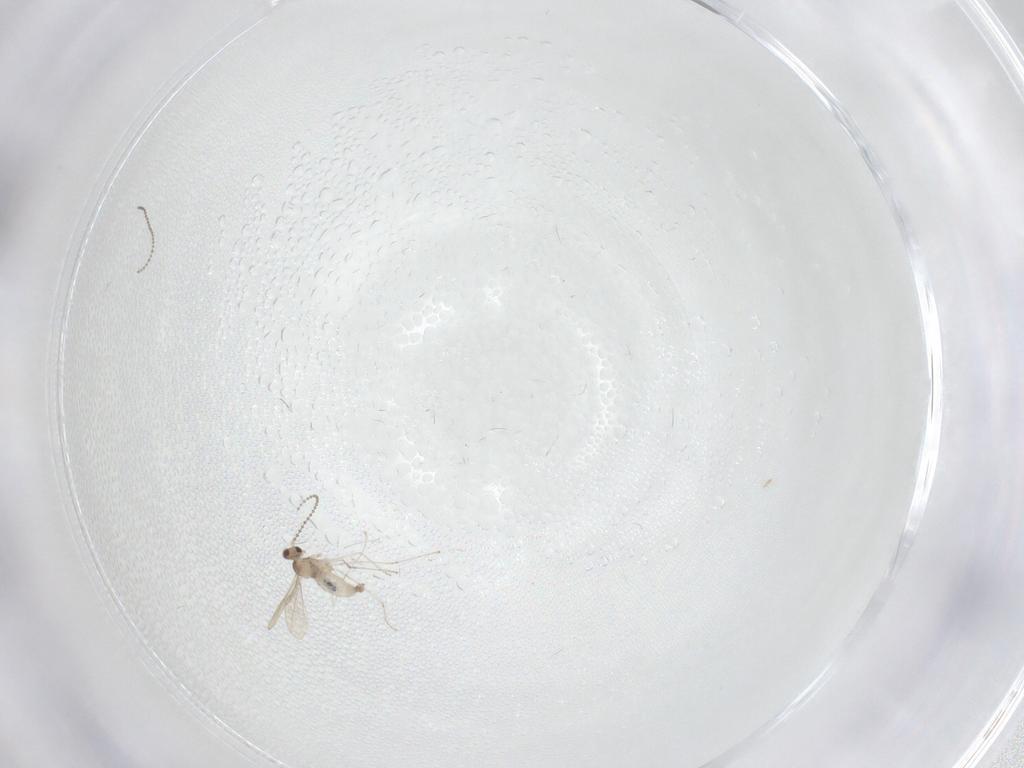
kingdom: Animalia
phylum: Arthropoda
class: Insecta
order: Diptera
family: Cecidomyiidae
